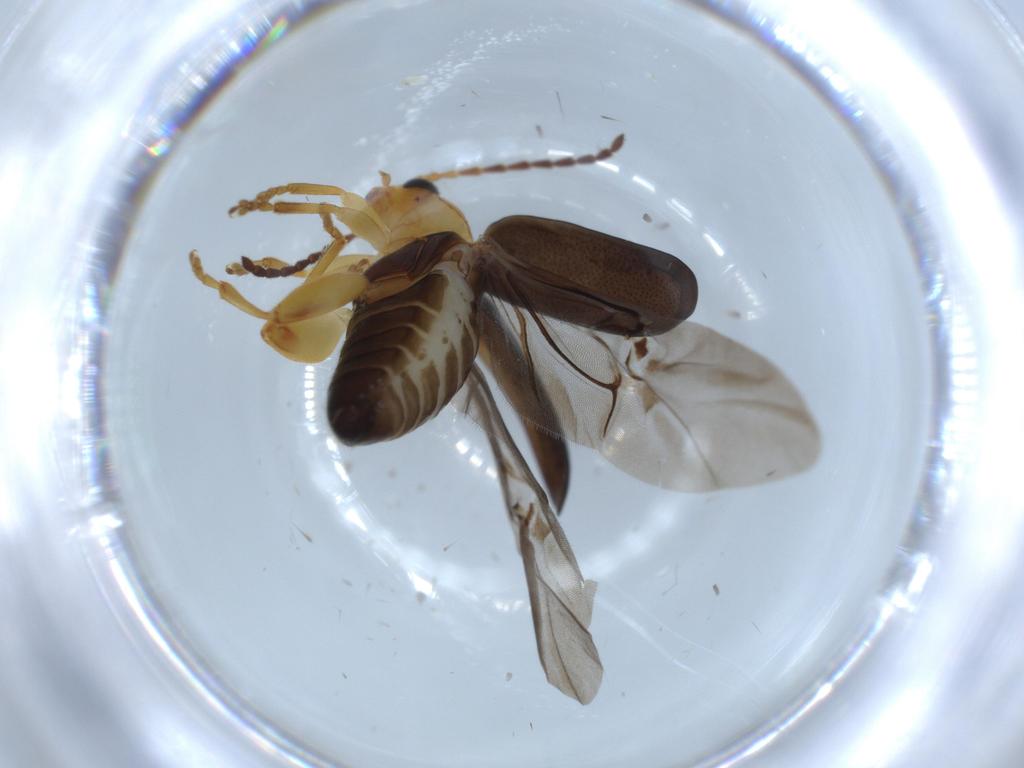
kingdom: Animalia
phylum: Arthropoda
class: Insecta
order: Coleoptera
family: Chrysomelidae
